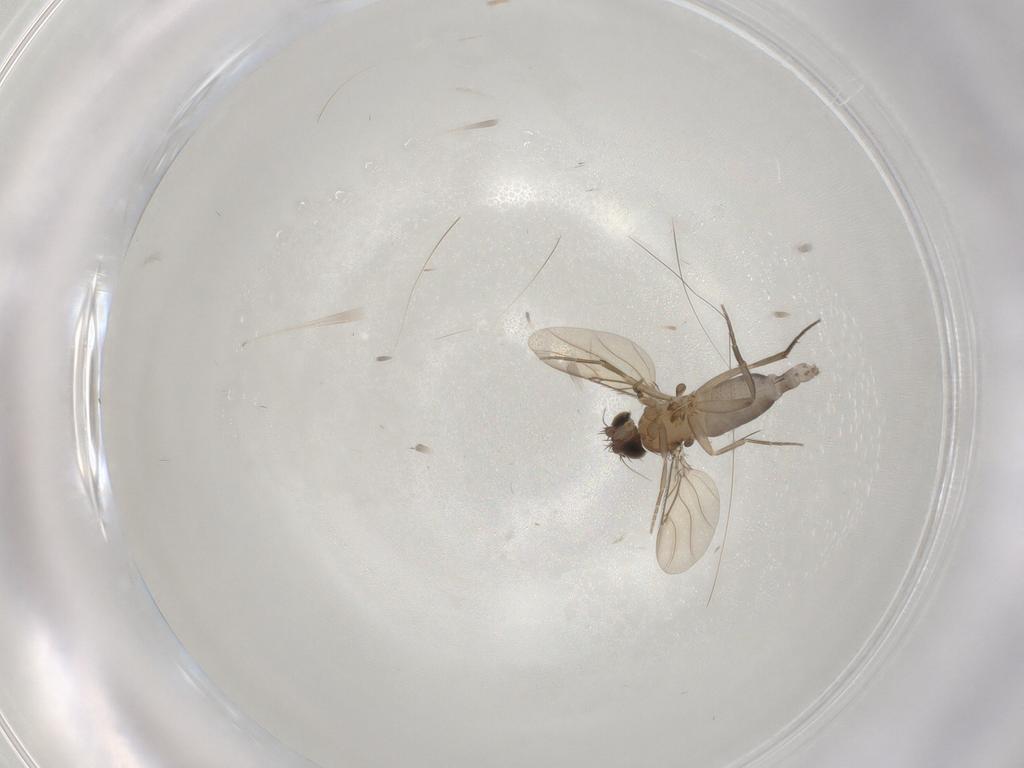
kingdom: Animalia
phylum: Arthropoda
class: Insecta
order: Diptera
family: Phoridae
